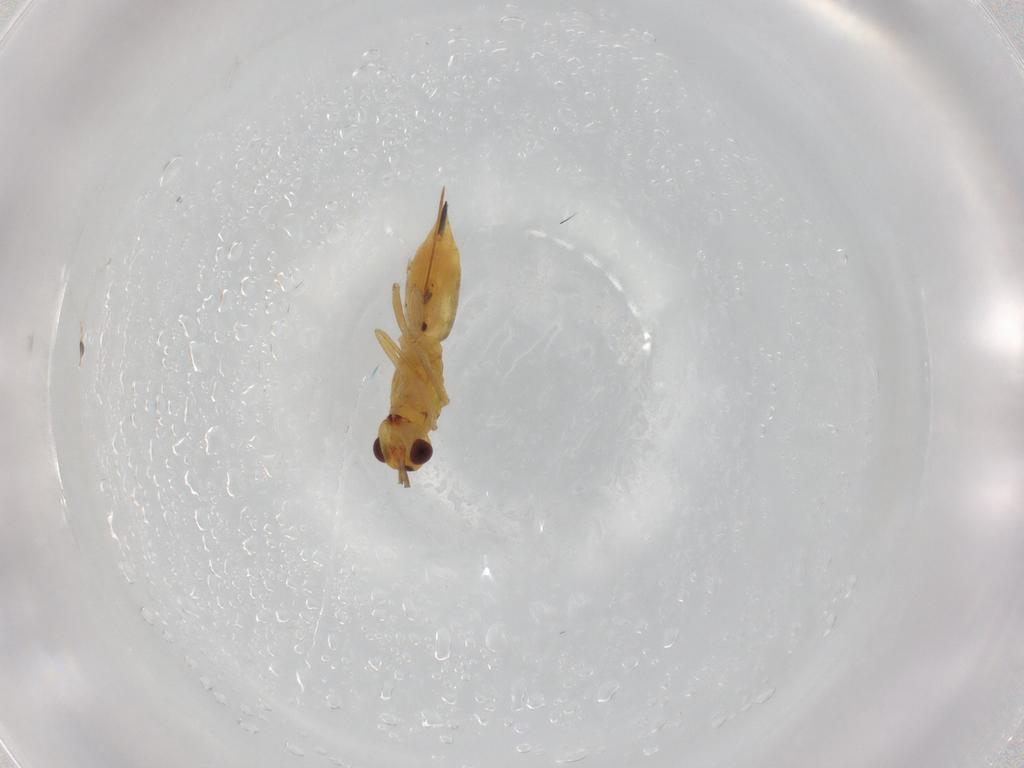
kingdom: Animalia
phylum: Arthropoda
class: Insecta
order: Hymenoptera
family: Eulophidae
